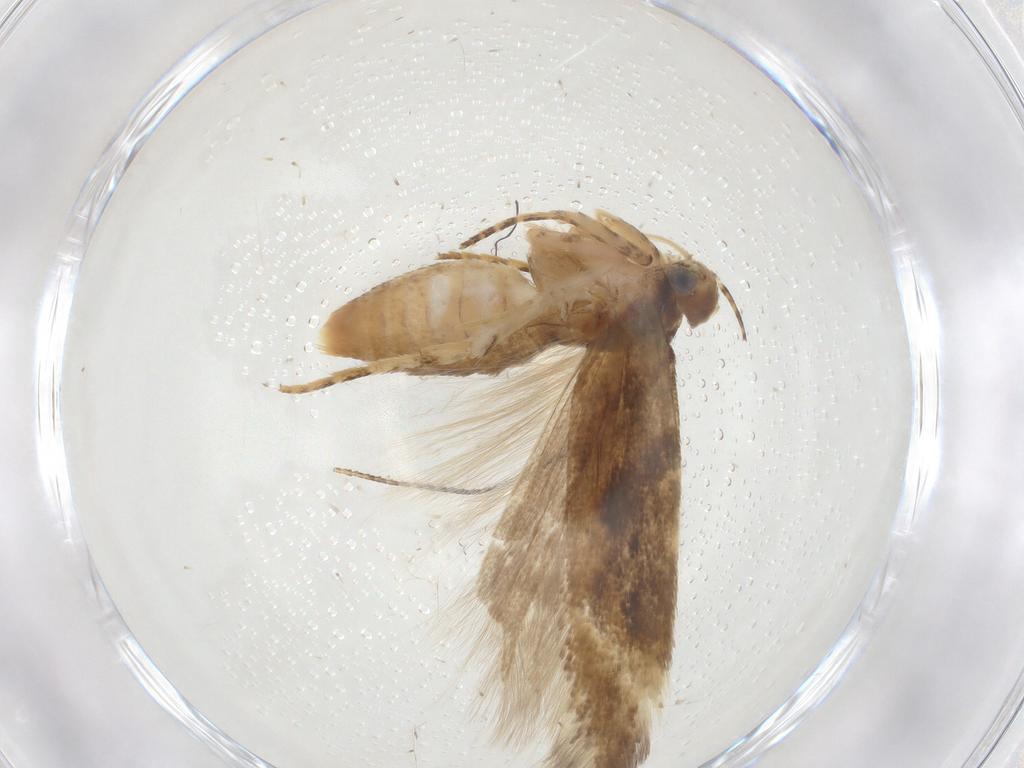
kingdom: Animalia
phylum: Arthropoda
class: Insecta
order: Lepidoptera
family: Gelechiidae
